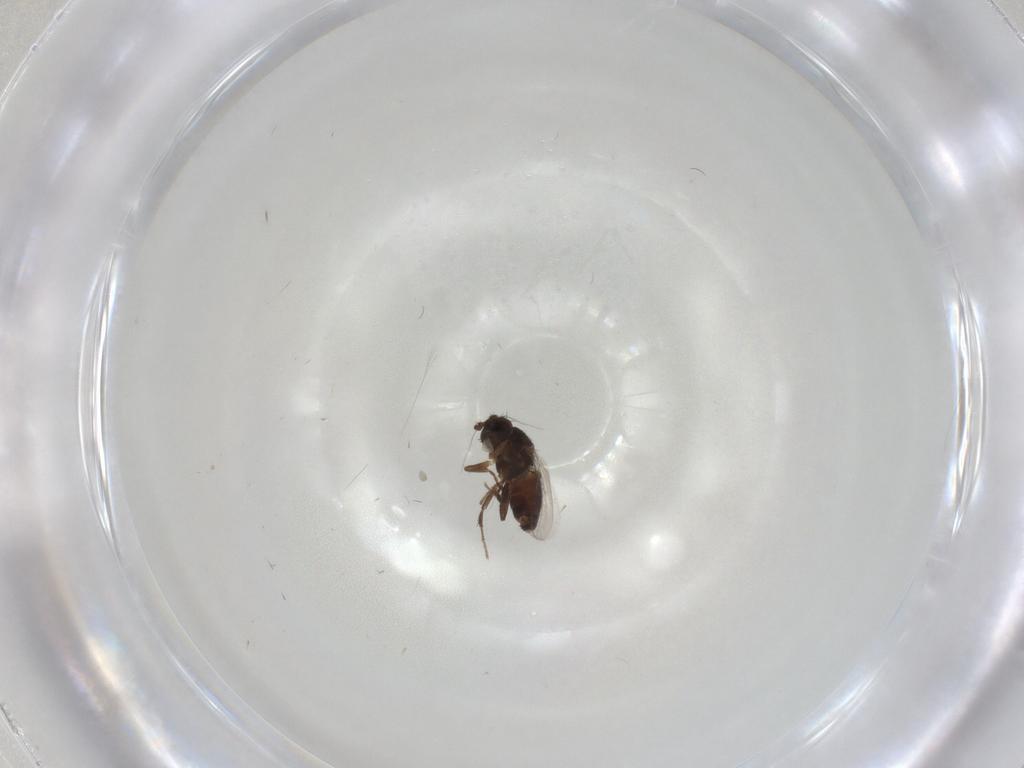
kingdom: Animalia
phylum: Arthropoda
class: Insecta
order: Diptera
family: Sphaeroceridae
